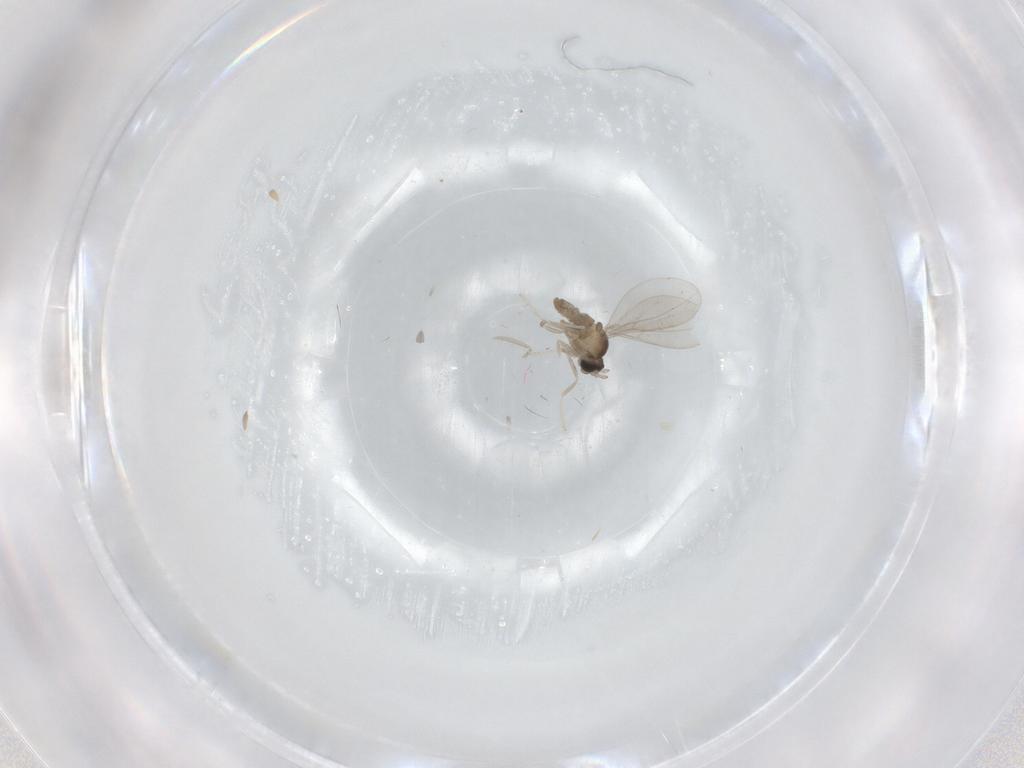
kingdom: Animalia
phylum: Arthropoda
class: Insecta
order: Diptera
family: Cecidomyiidae
